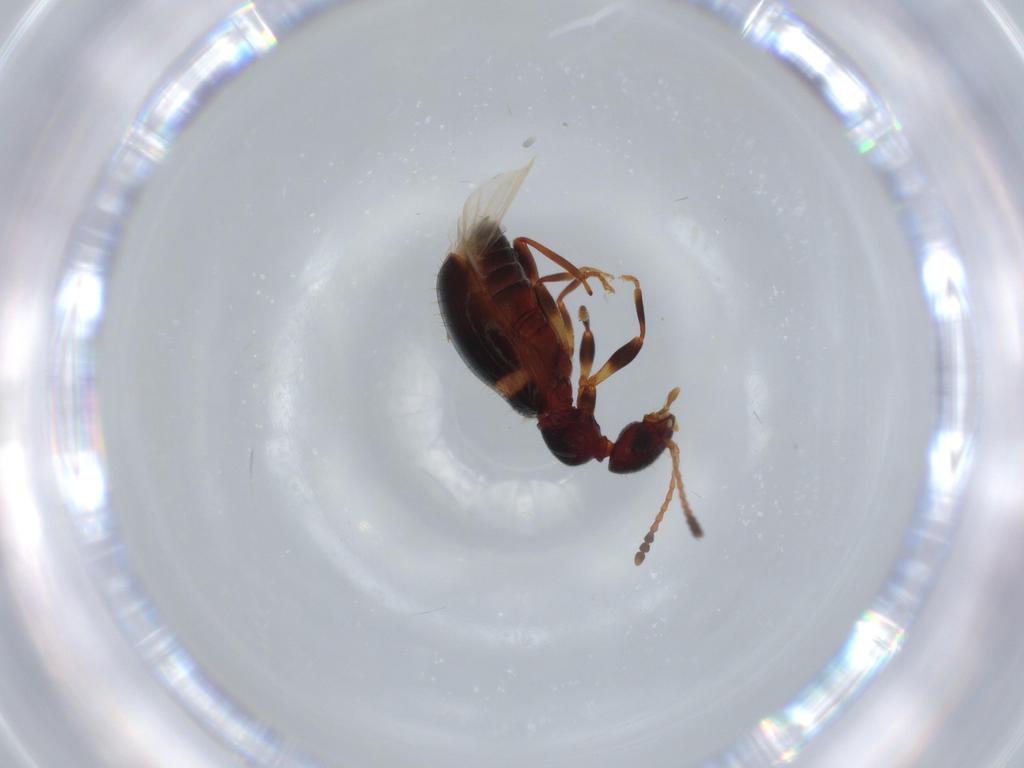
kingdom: Animalia
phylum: Arthropoda
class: Insecta
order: Coleoptera
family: Anthicidae
